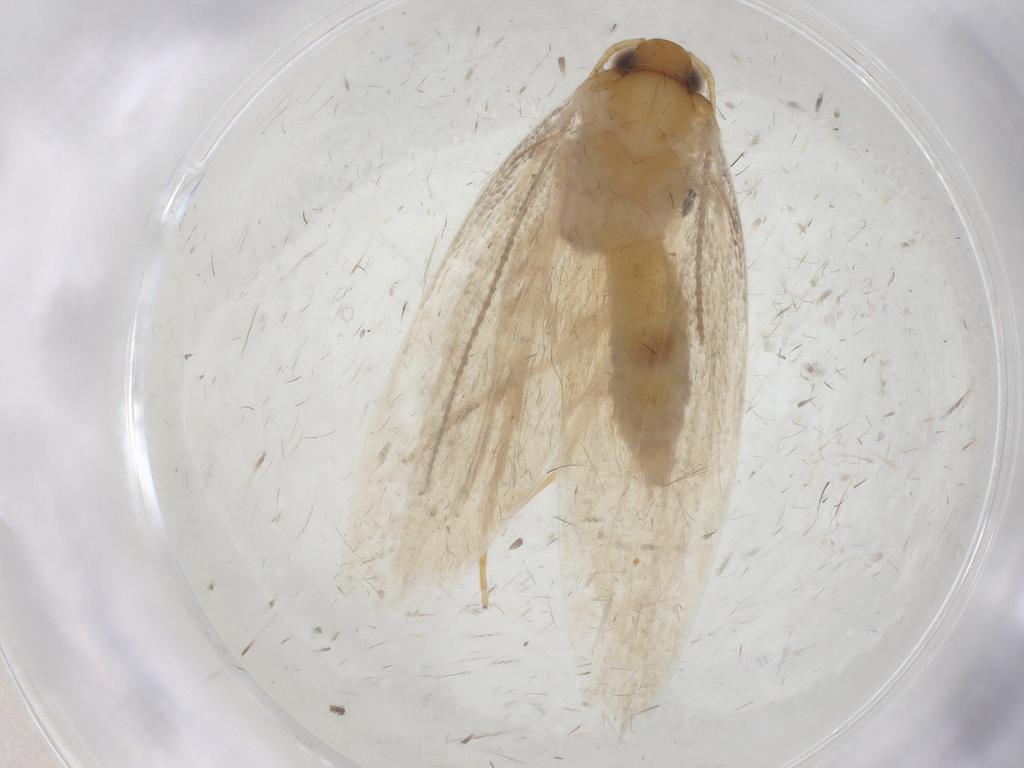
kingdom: Animalia
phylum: Arthropoda
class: Insecta
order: Lepidoptera
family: Oecophoridae
